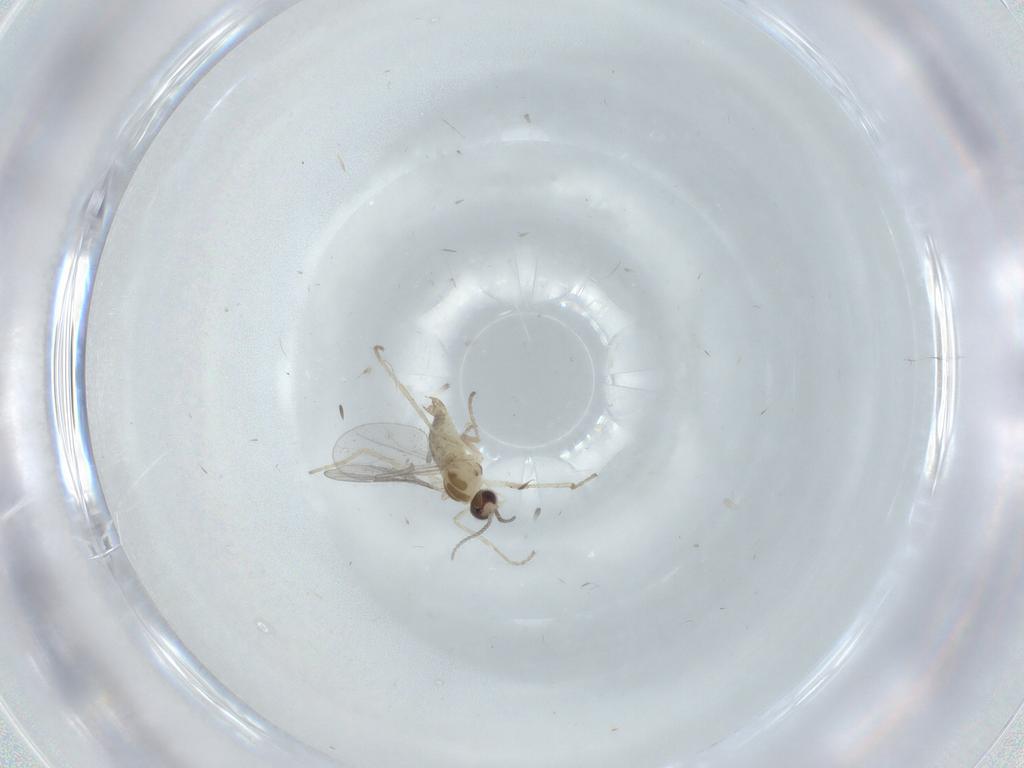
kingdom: Animalia
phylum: Arthropoda
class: Insecta
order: Diptera
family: Cecidomyiidae
